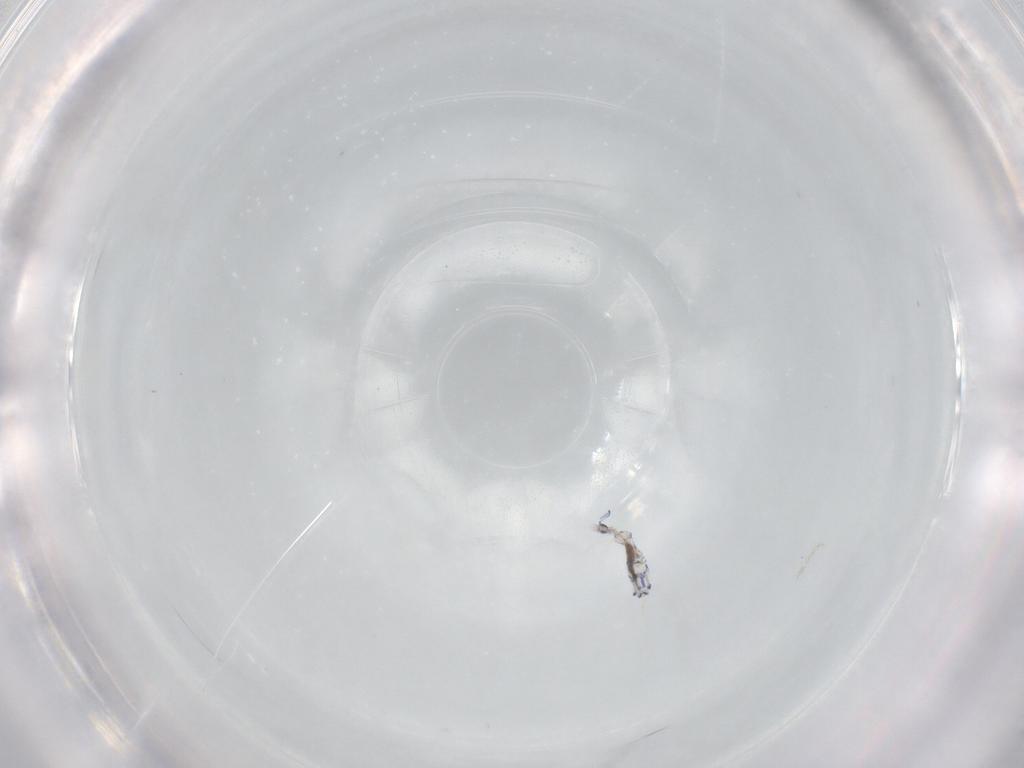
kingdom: Animalia
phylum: Arthropoda
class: Collembola
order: Entomobryomorpha
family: Entomobryidae
